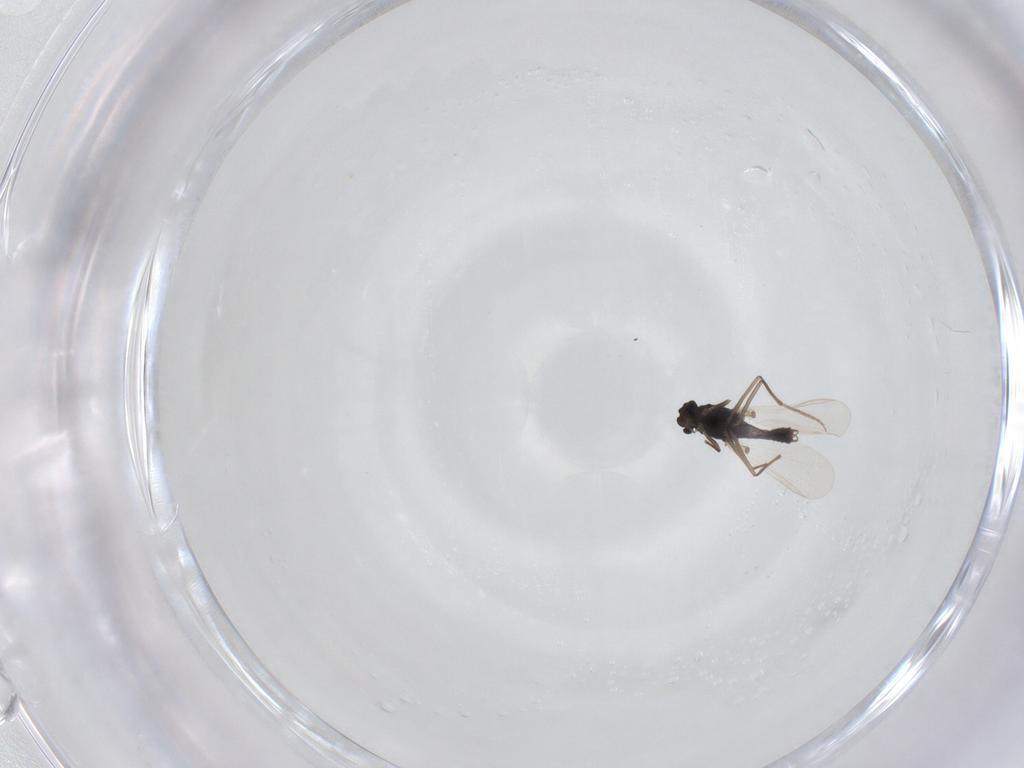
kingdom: Animalia
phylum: Arthropoda
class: Insecta
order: Diptera
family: Chironomidae
